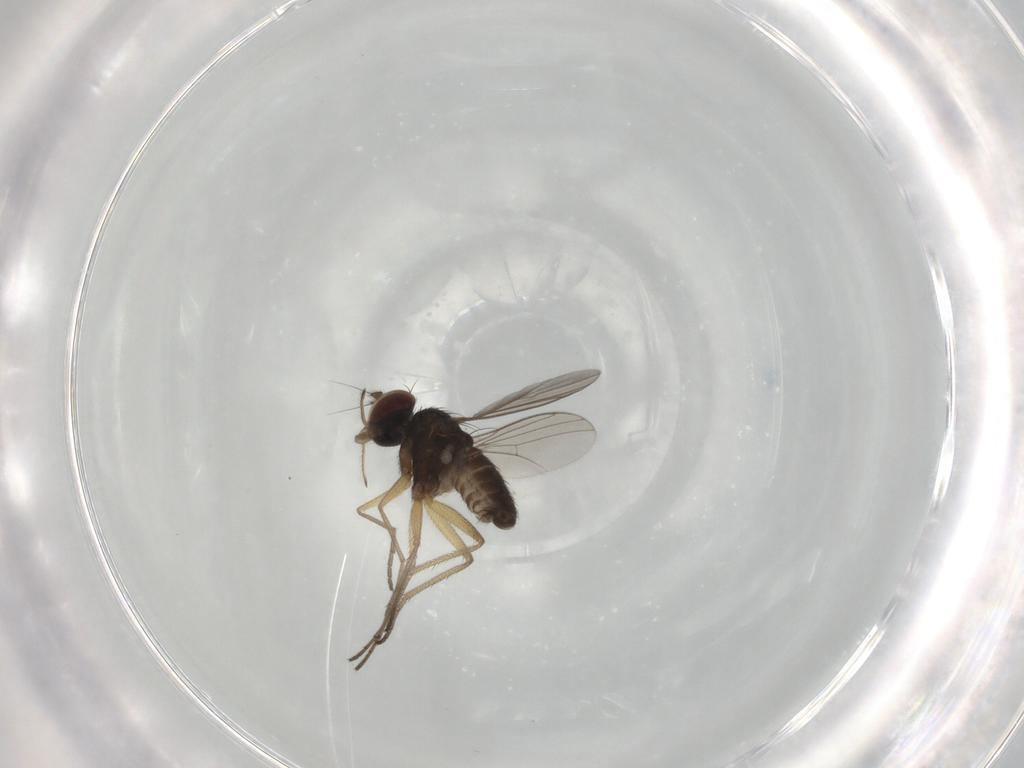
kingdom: Animalia
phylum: Arthropoda
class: Insecta
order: Diptera
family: Dolichopodidae
